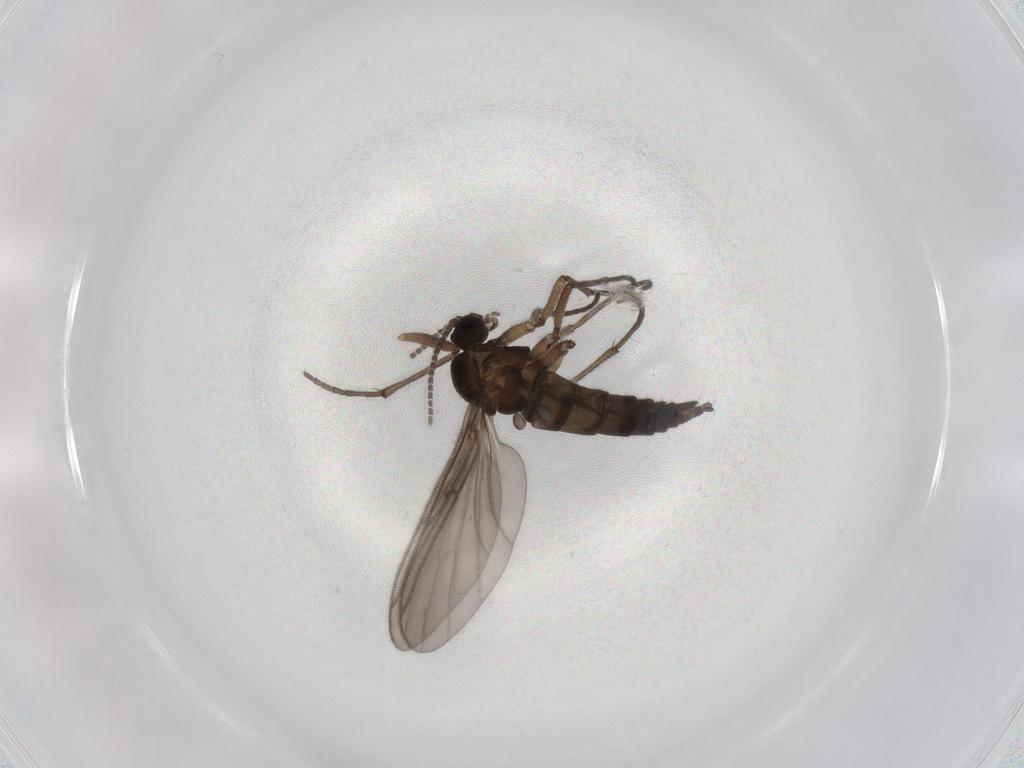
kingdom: Animalia
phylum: Arthropoda
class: Insecta
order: Diptera
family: Sciaridae
